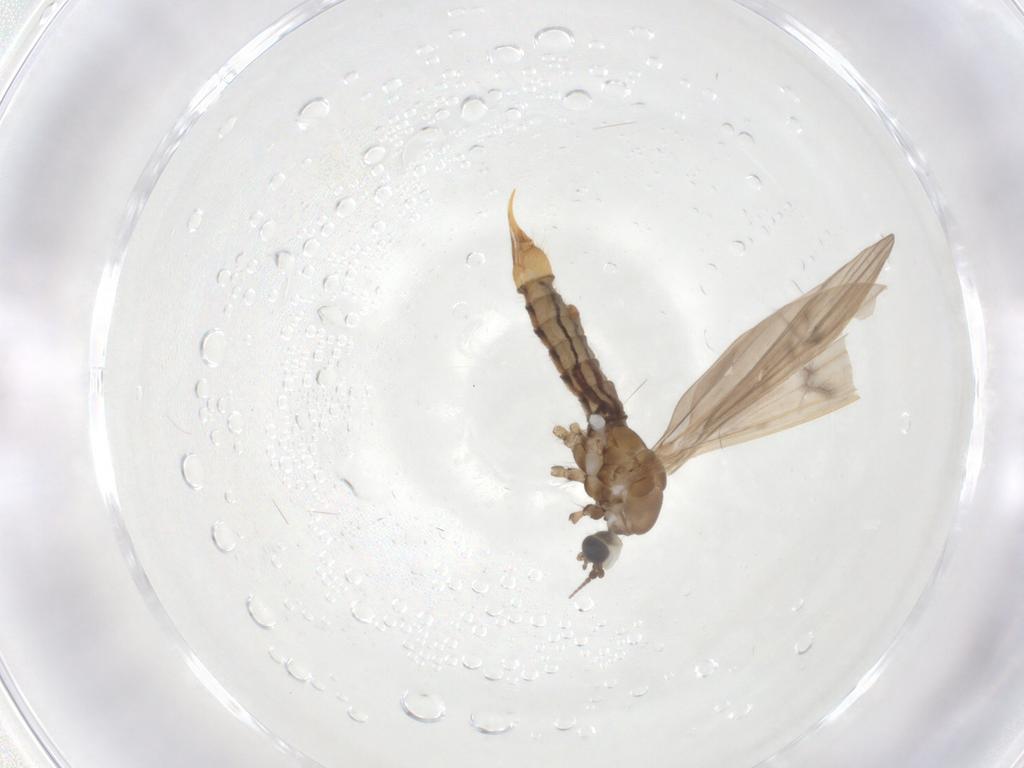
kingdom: Animalia
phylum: Arthropoda
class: Insecta
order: Diptera
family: Limoniidae
